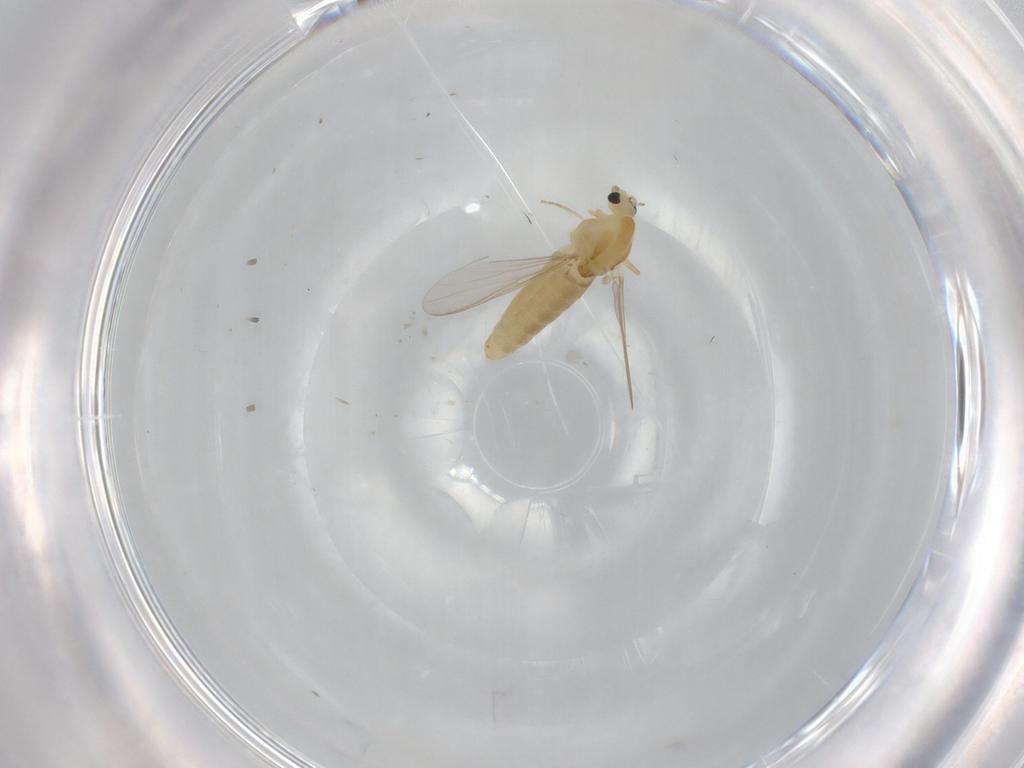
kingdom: Animalia
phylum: Arthropoda
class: Insecta
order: Diptera
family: Chironomidae
